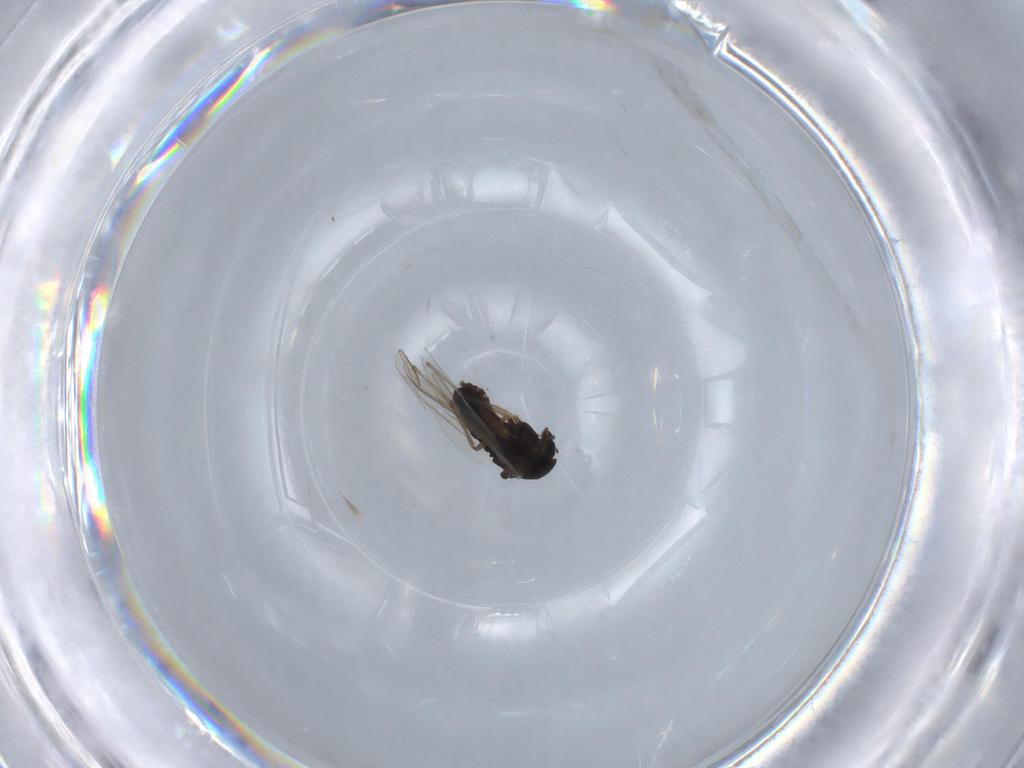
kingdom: Animalia
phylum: Arthropoda
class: Insecta
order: Diptera
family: Chironomidae
